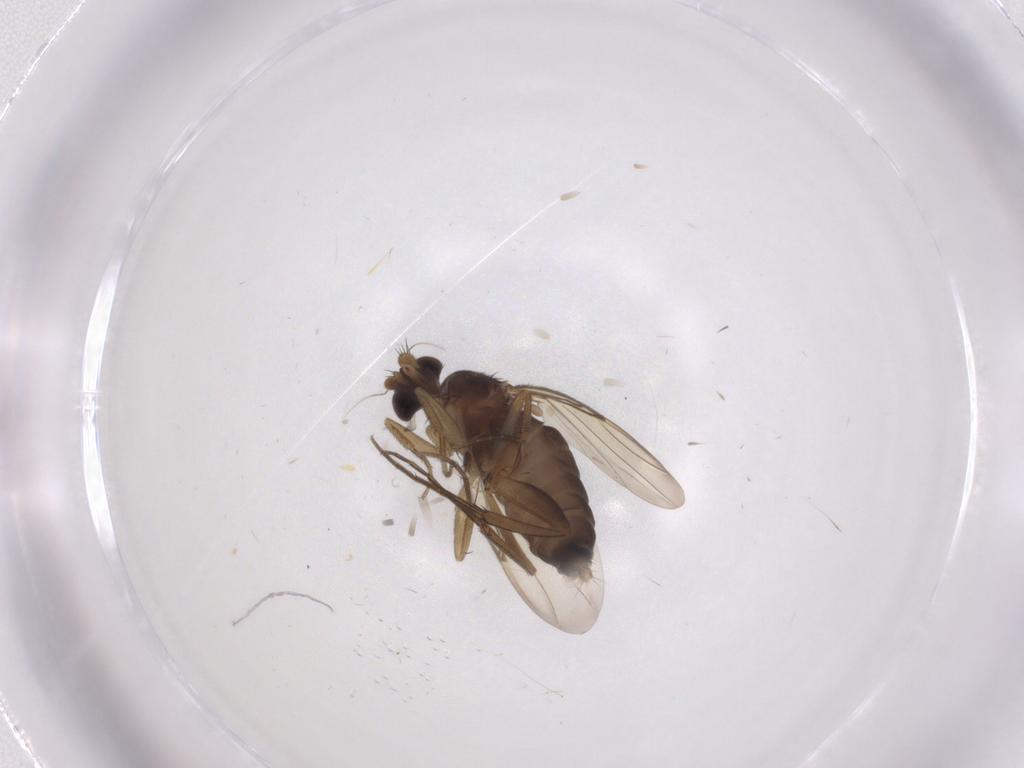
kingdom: Animalia
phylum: Arthropoda
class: Insecta
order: Diptera
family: Phoridae
